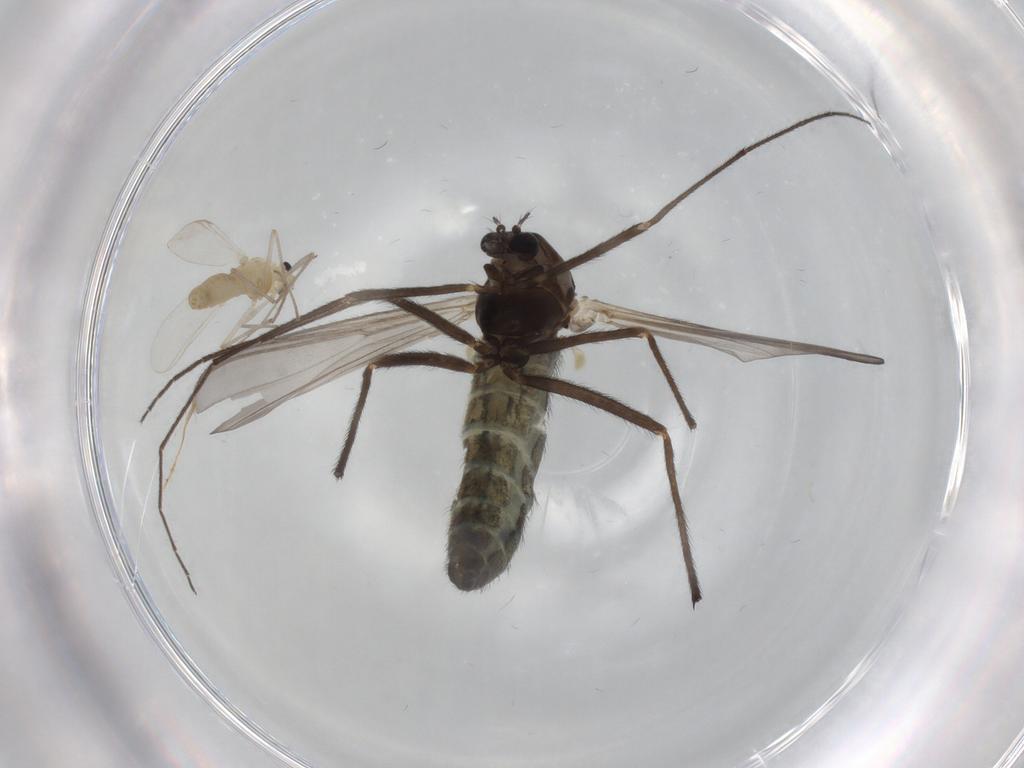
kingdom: Animalia
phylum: Arthropoda
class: Insecta
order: Diptera
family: Chironomidae
